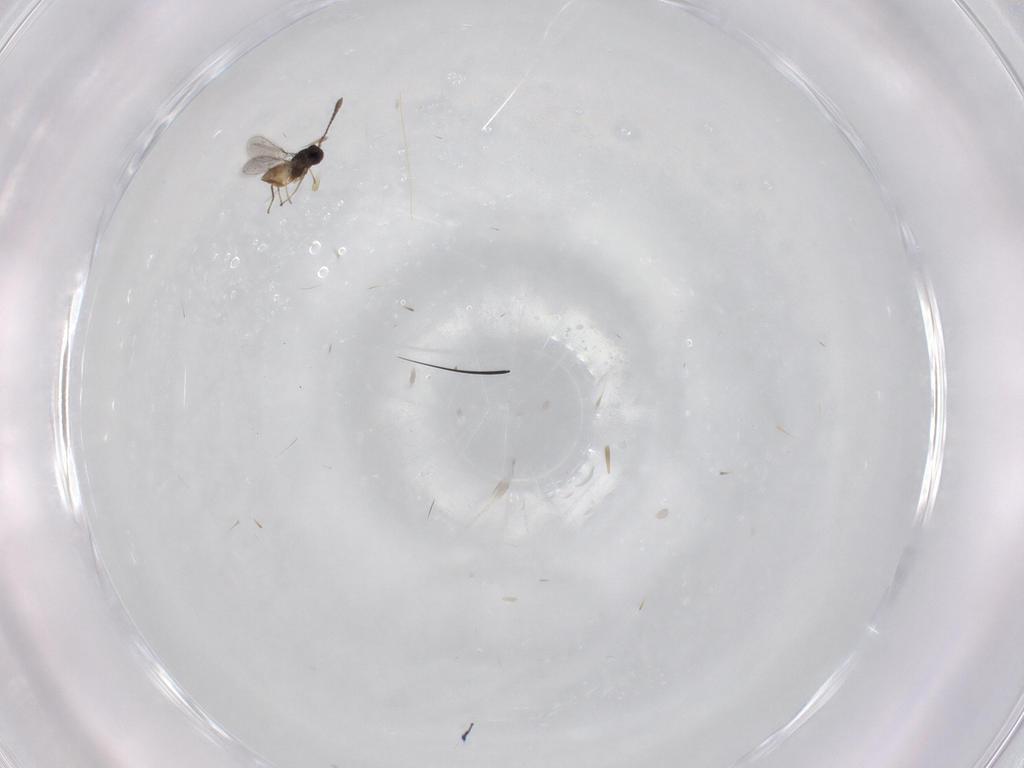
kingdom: Animalia
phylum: Arthropoda
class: Insecta
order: Hymenoptera
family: Mymaridae
